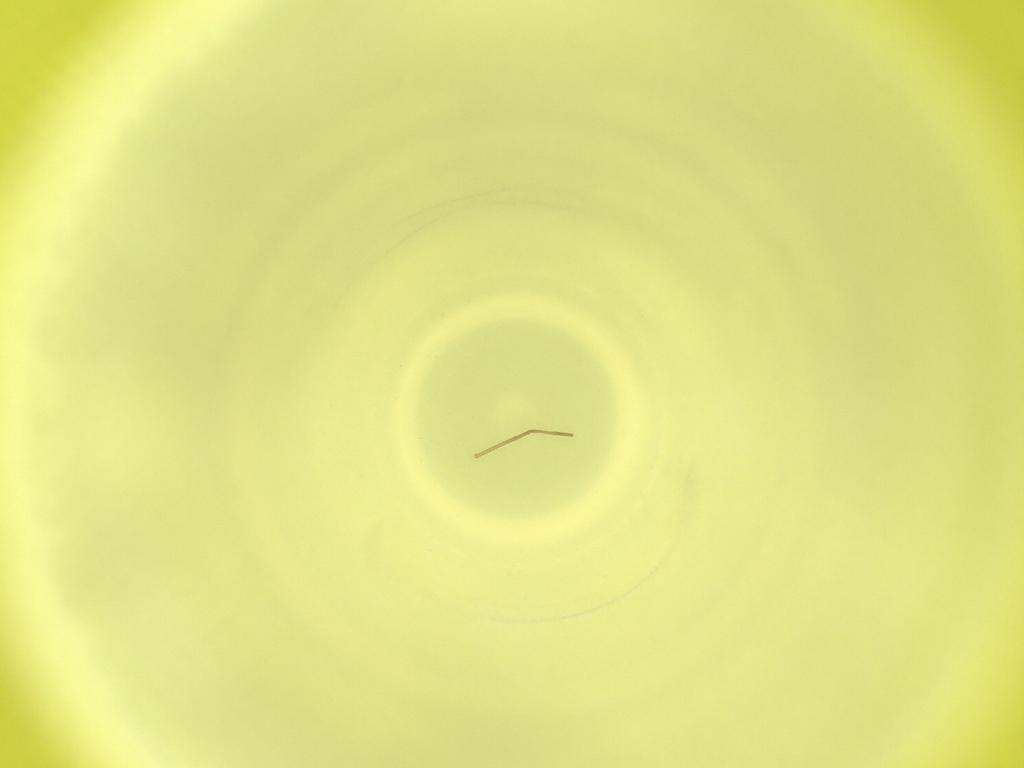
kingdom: Animalia
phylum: Arthropoda
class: Insecta
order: Diptera
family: Cecidomyiidae
